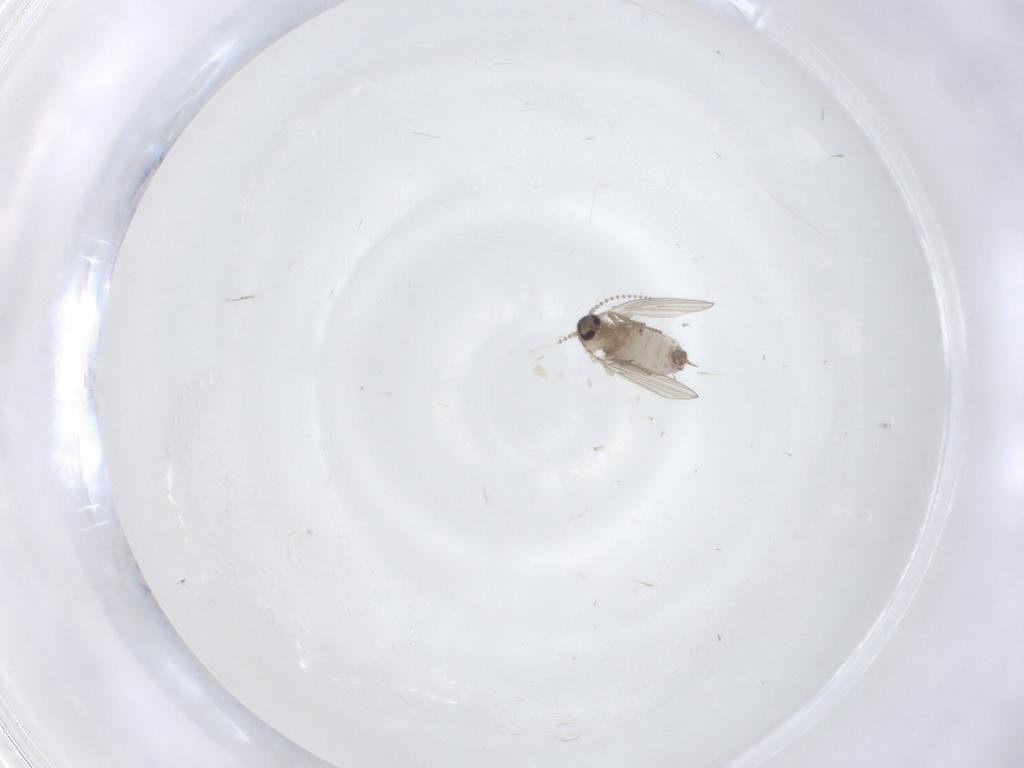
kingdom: Animalia
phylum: Arthropoda
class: Insecta
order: Diptera
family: Psychodidae
